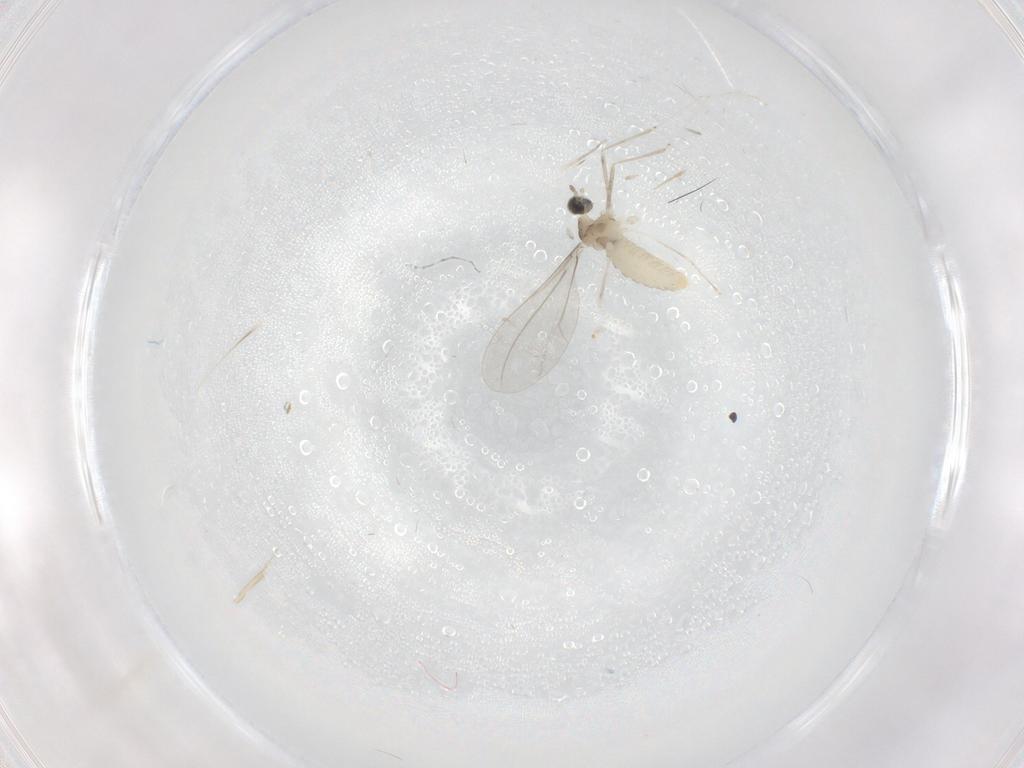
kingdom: Animalia
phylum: Arthropoda
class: Insecta
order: Diptera
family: Cecidomyiidae
